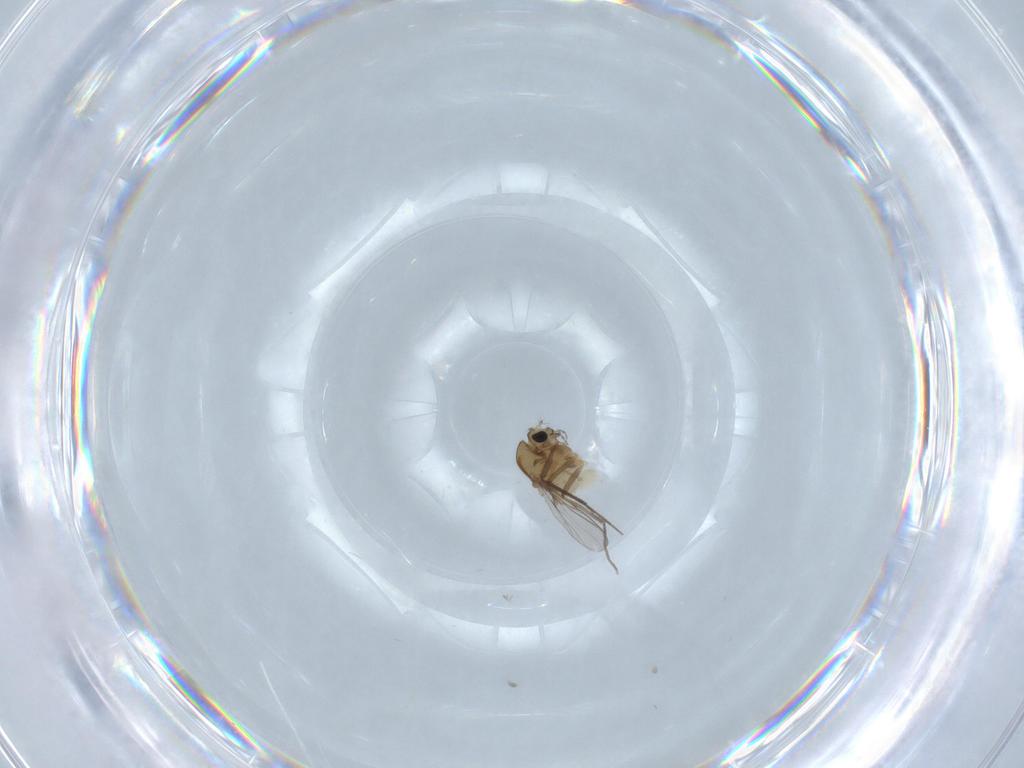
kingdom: Animalia
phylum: Arthropoda
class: Insecta
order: Diptera
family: Chironomidae
